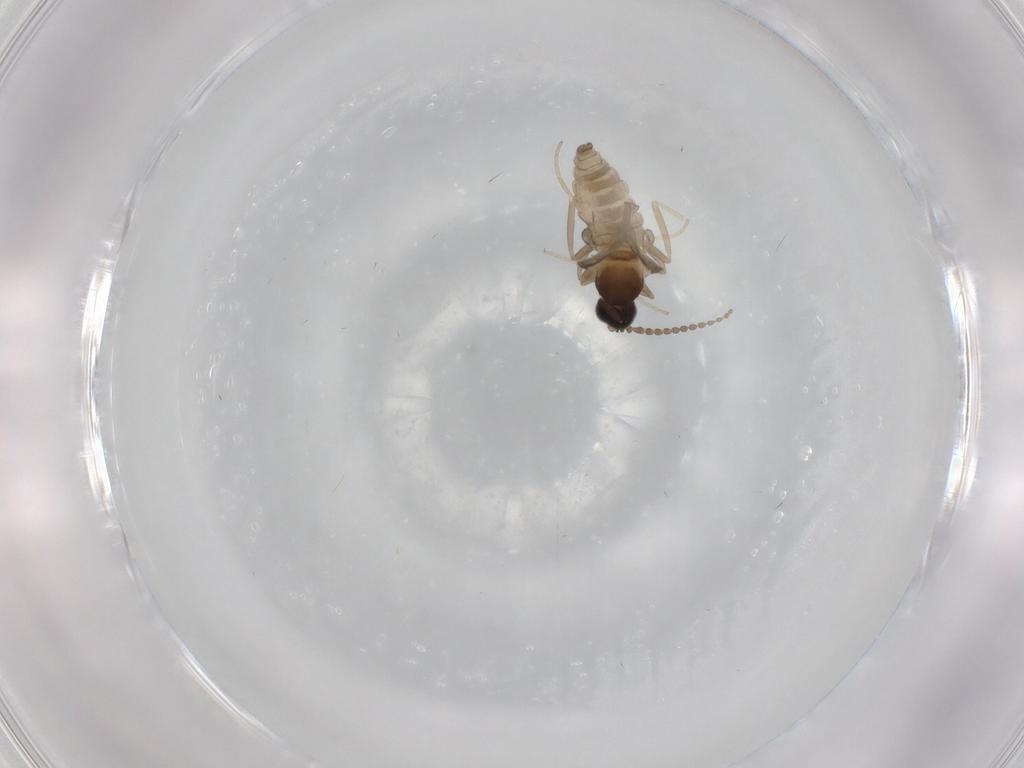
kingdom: Animalia
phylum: Arthropoda
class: Insecta
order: Diptera
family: Cecidomyiidae
